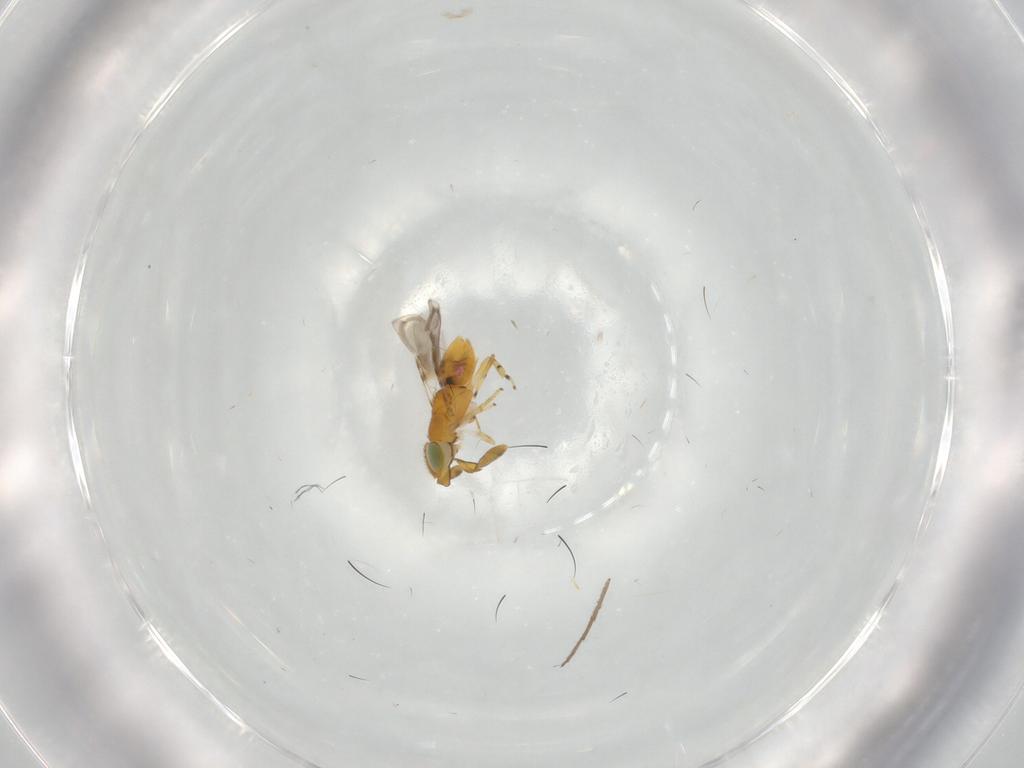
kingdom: Animalia
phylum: Arthropoda
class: Insecta
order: Diptera
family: Chironomidae
